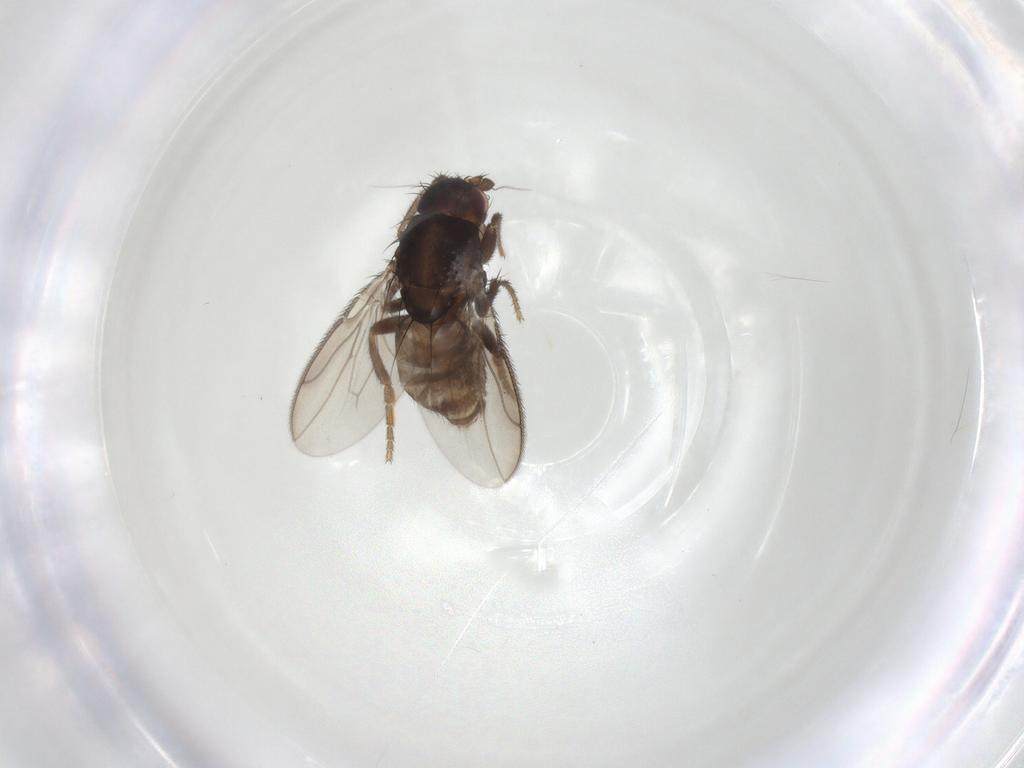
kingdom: Animalia
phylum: Arthropoda
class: Insecta
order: Diptera
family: Sphaeroceridae
